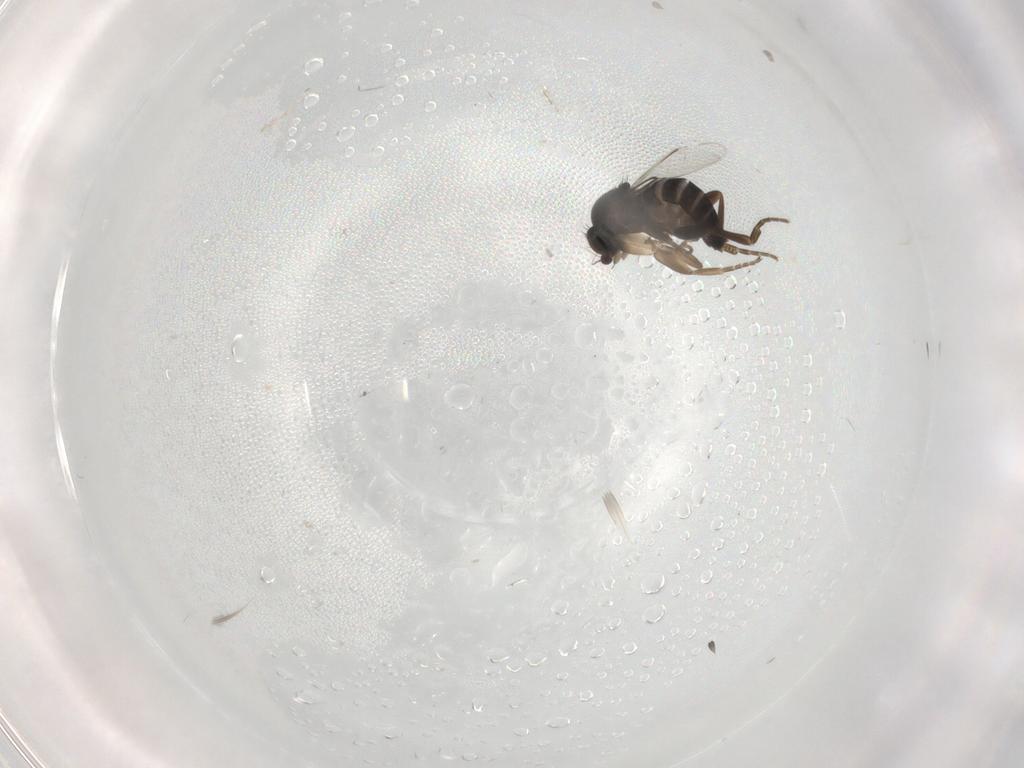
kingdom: Animalia
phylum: Arthropoda
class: Insecta
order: Diptera
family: Phoridae
